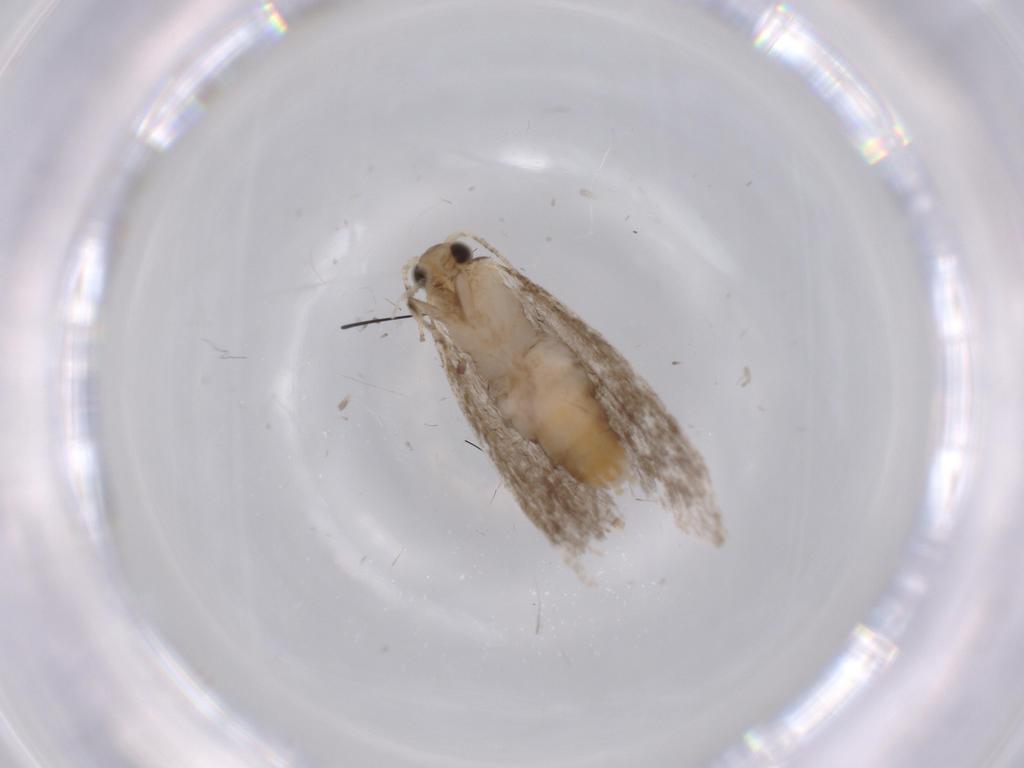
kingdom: Animalia
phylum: Arthropoda
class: Insecta
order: Lepidoptera
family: Tineidae
